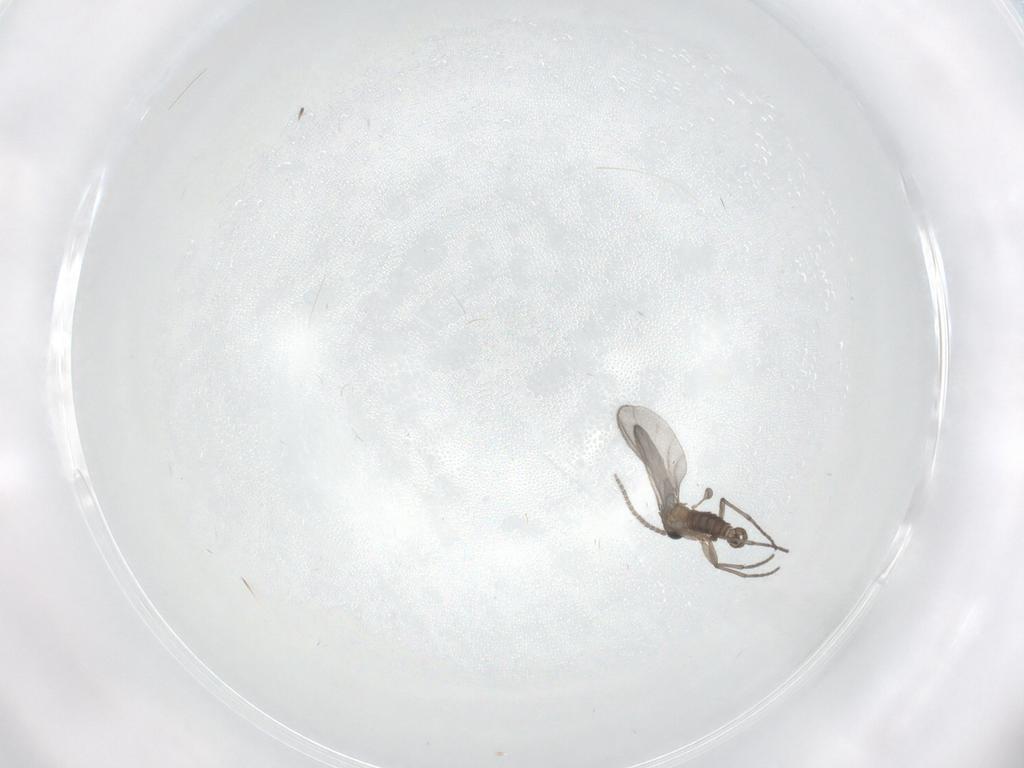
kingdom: Animalia
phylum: Arthropoda
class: Insecta
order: Diptera
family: Sciaridae
